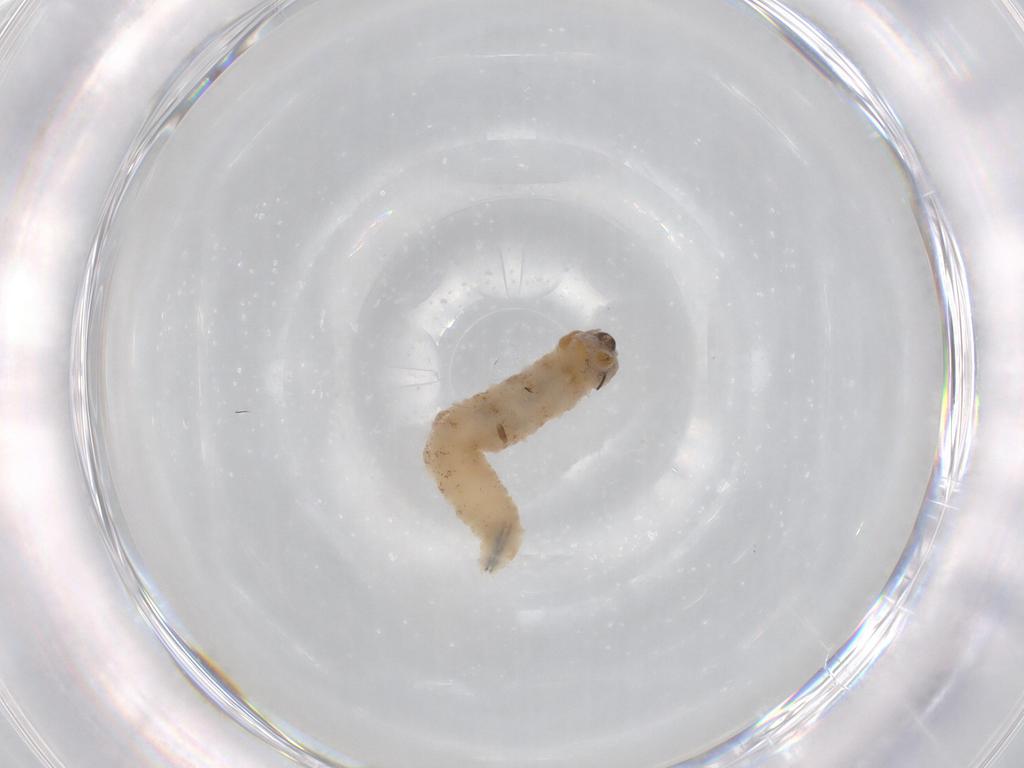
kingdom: Animalia
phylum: Arthropoda
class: Insecta
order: Diptera
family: Drosophilidae
